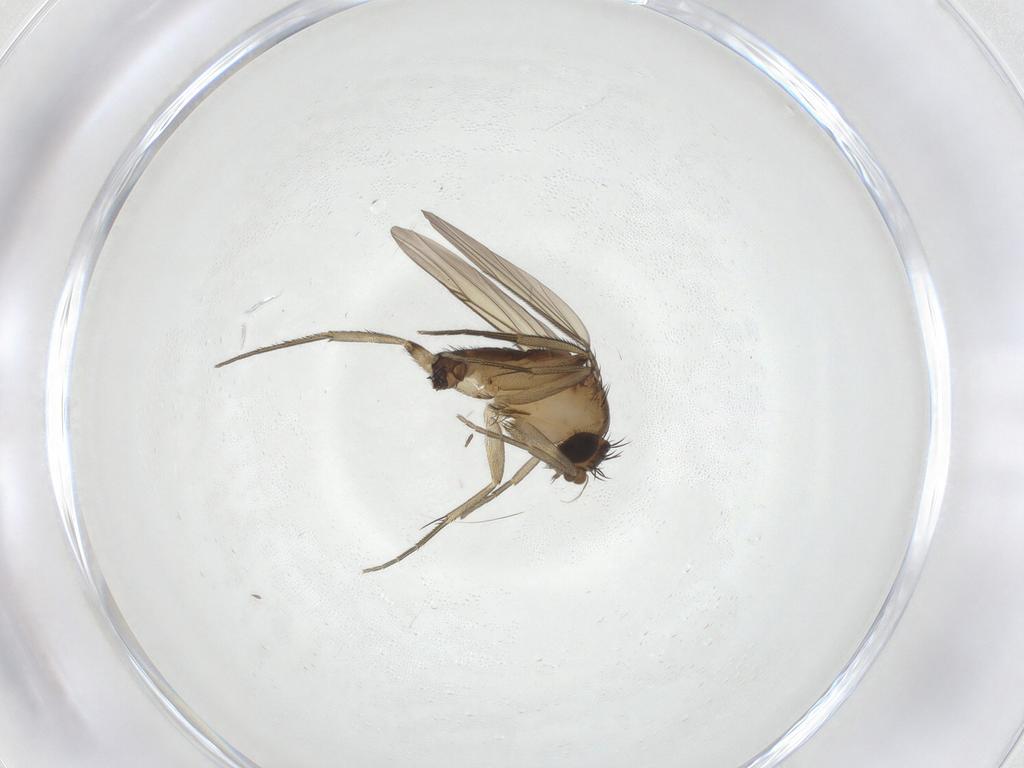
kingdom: Animalia
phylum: Arthropoda
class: Insecta
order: Diptera
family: Phoridae
